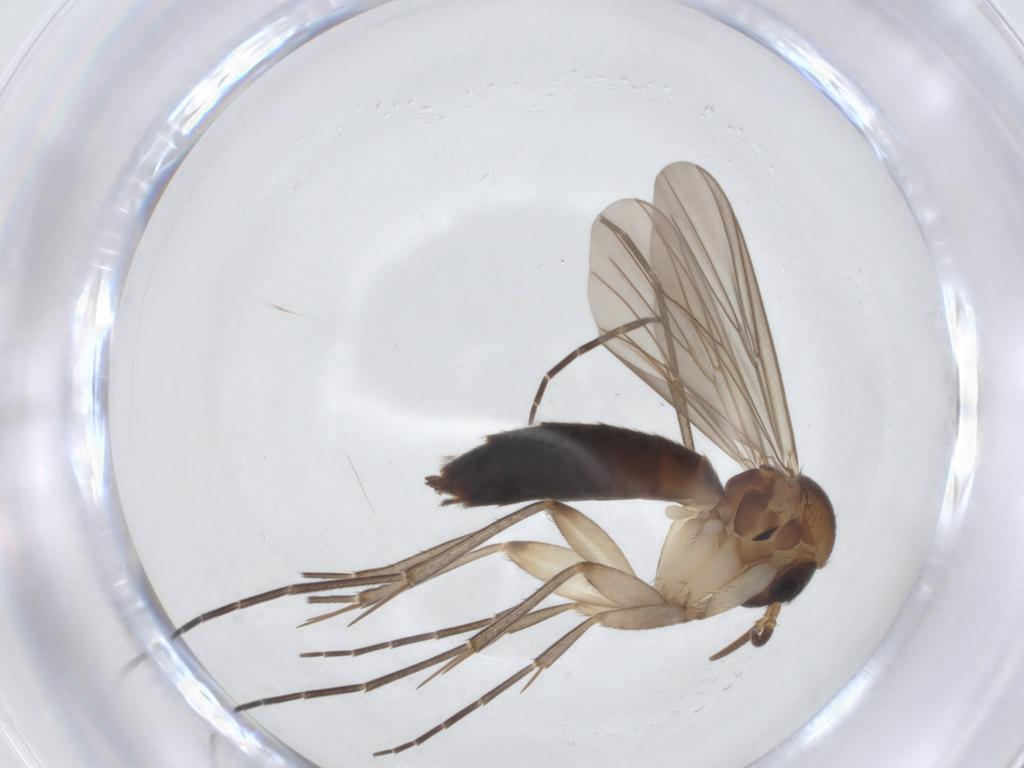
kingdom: Animalia
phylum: Arthropoda
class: Insecta
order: Diptera
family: Mycetophilidae
